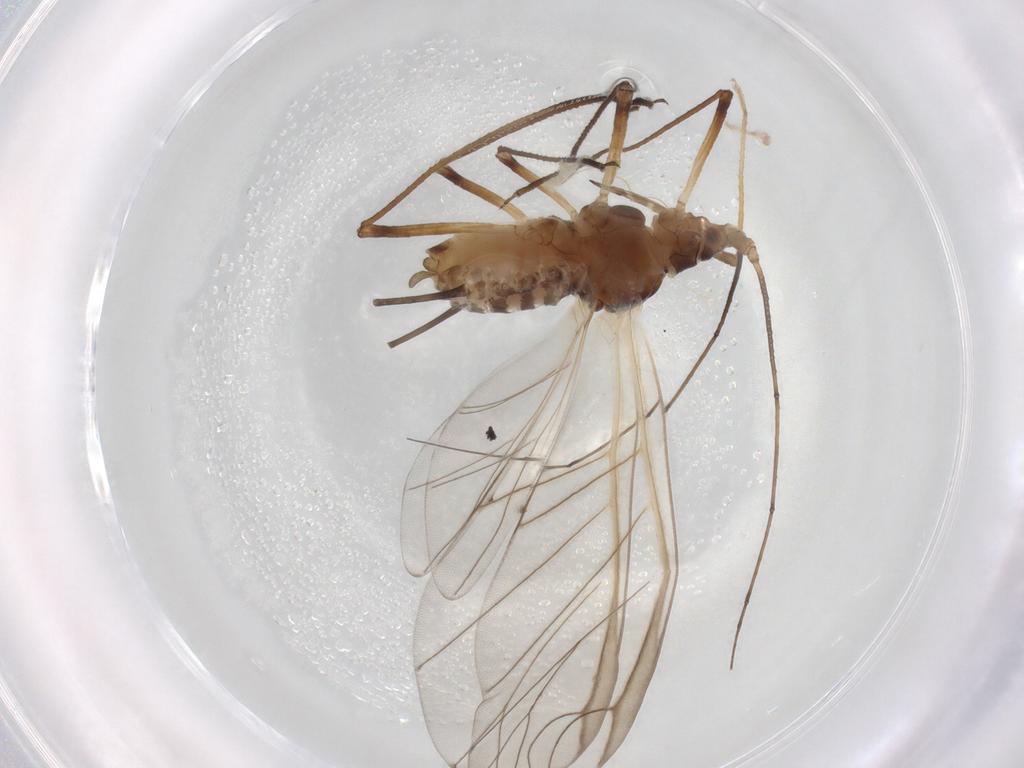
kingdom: Animalia
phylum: Arthropoda
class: Insecta
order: Hemiptera
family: Aphididae
